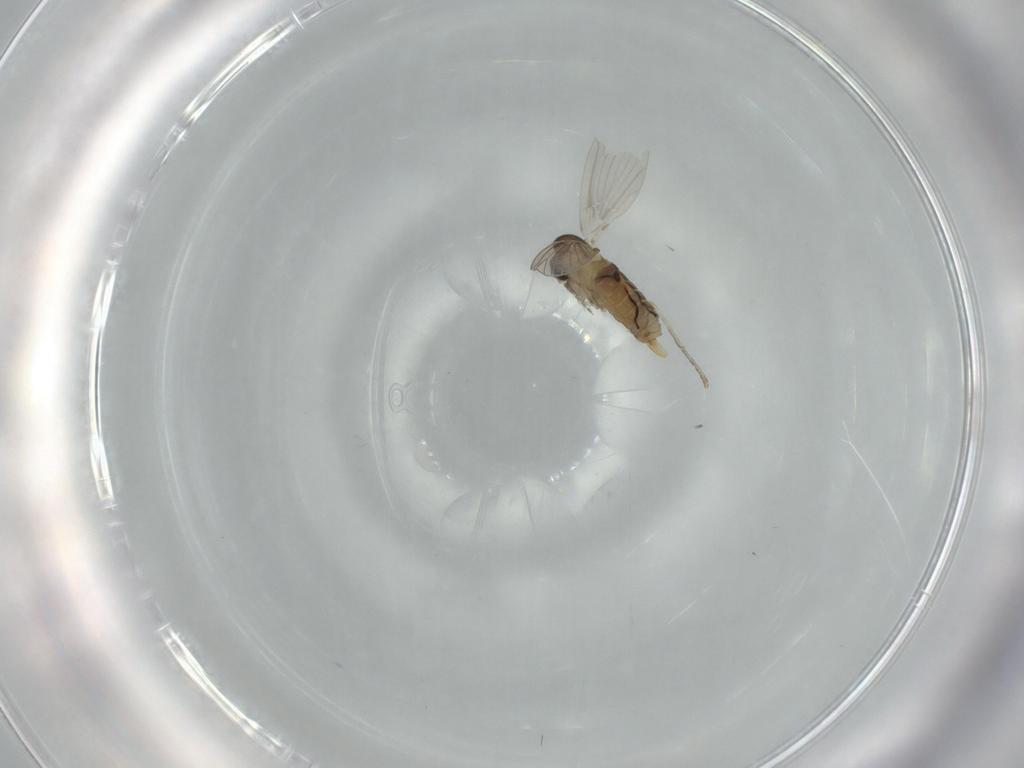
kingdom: Animalia
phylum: Arthropoda
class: Insecta
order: Diptera
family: Psychodidae
